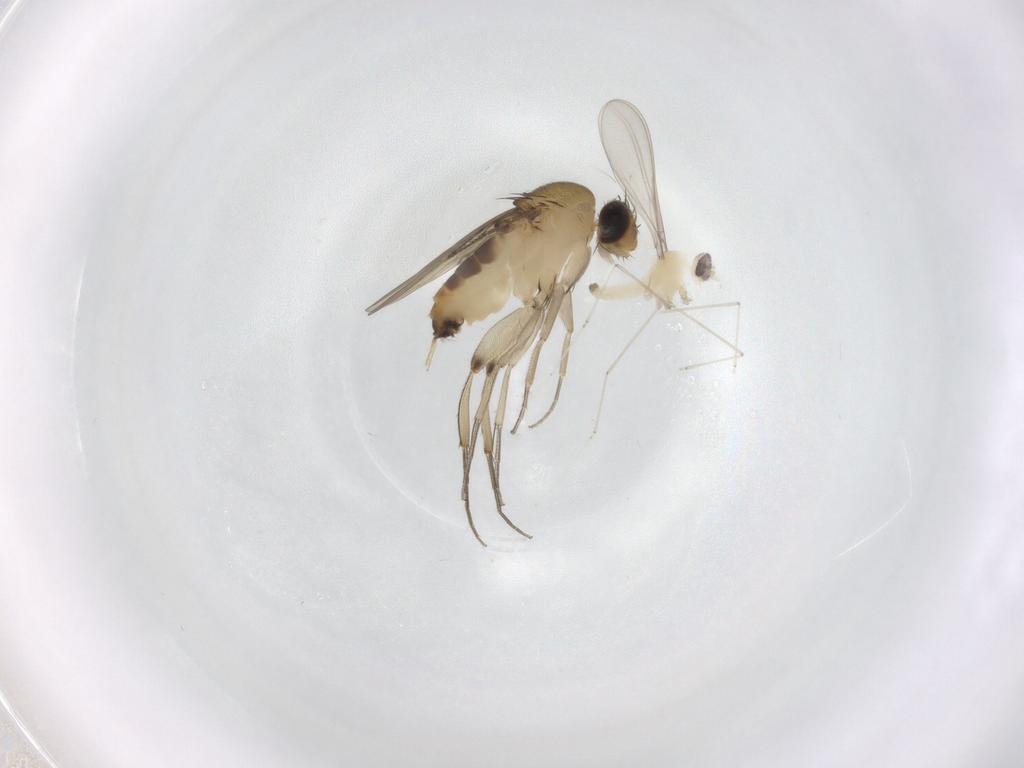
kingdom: Animalia
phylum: Arthropoda
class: Insecta
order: Diptera
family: Cecidomyiidae
